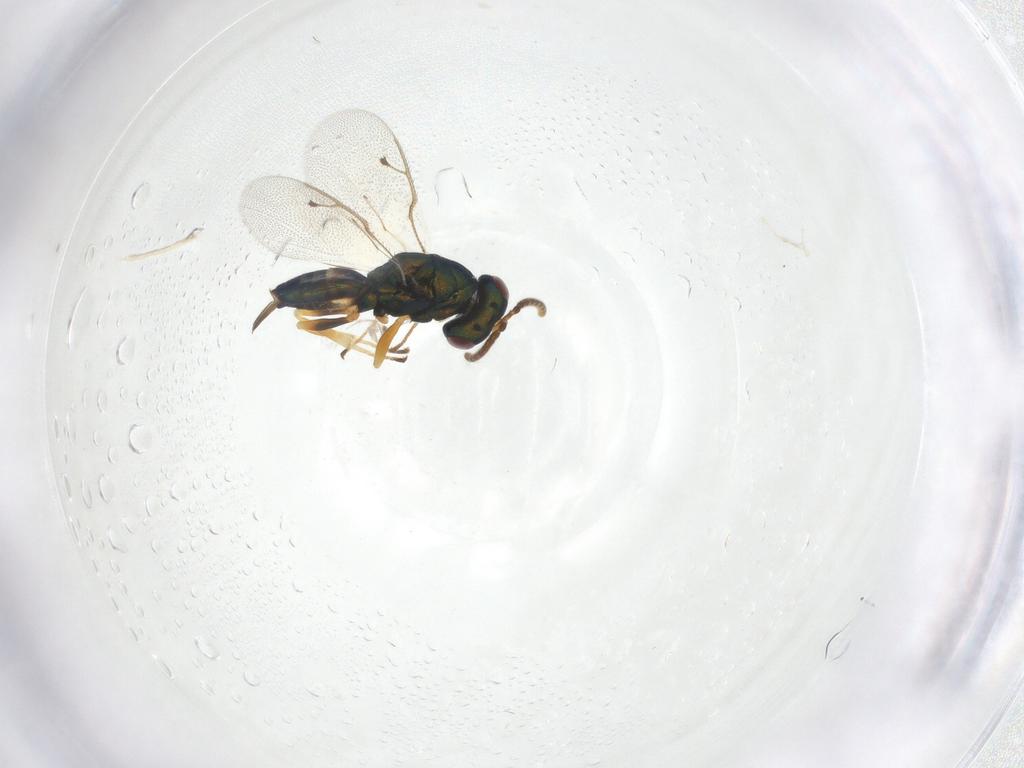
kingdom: Animalia
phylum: Arthropoda
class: Insecta
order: Hymenoptera
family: Pteromalidae
